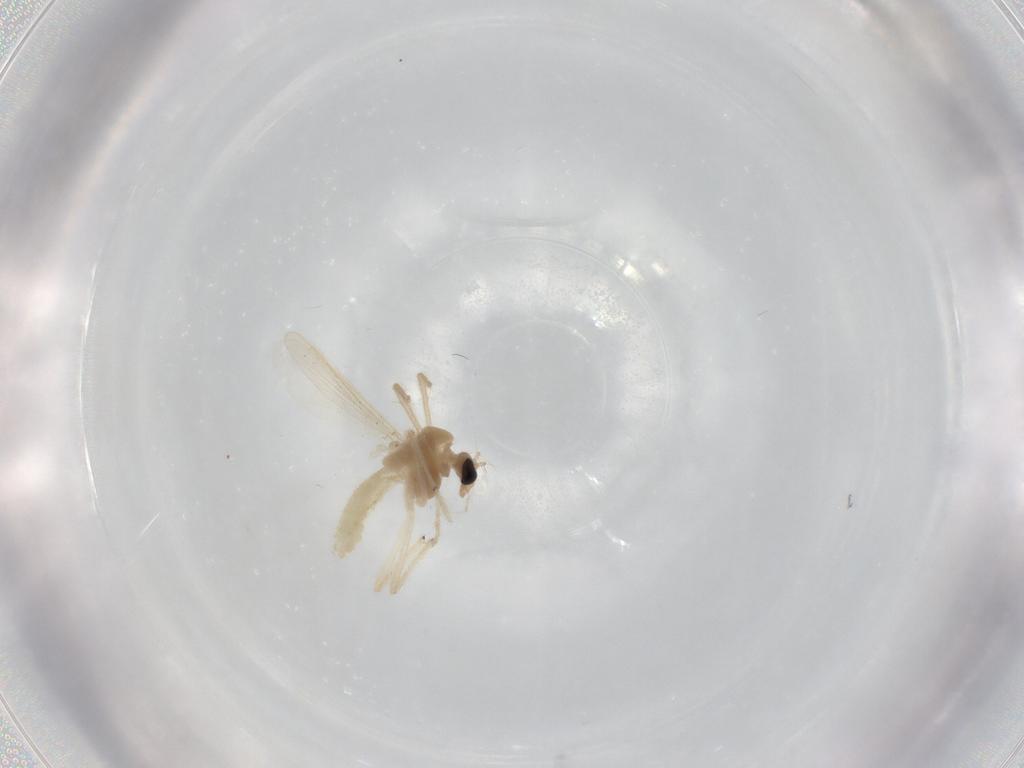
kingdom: Animalia
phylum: Arthropoda
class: Insecta
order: Diptera
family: Chironomidae
